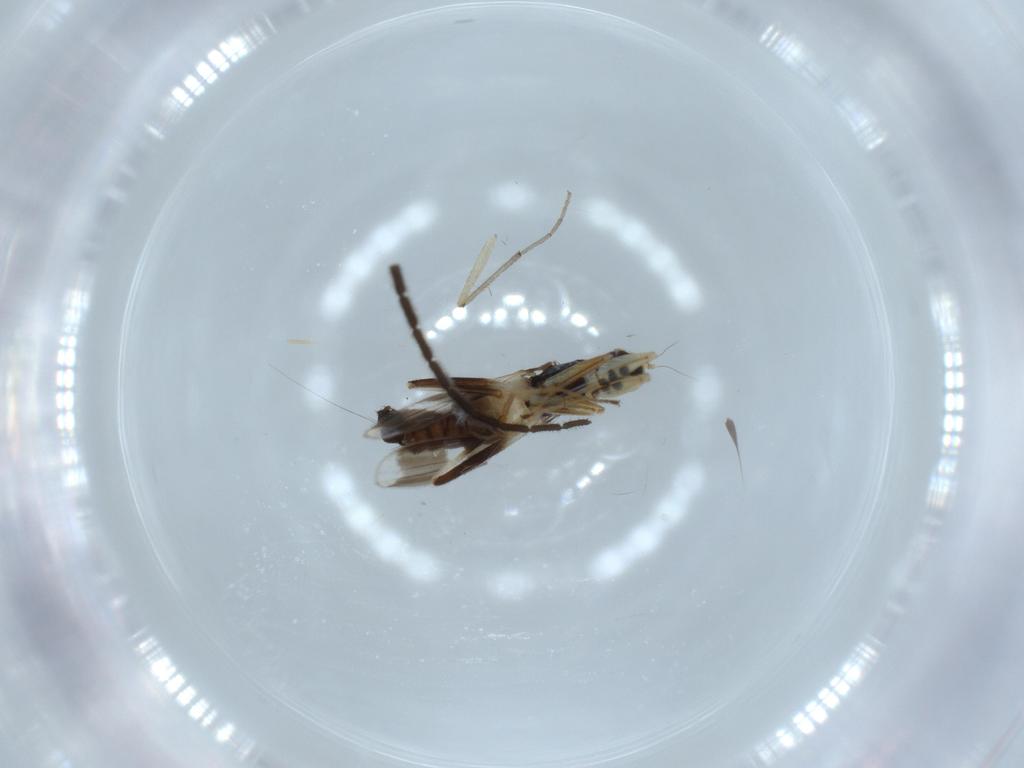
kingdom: Animalia
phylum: Arthropoda
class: Insecta
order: Diptera
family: Hybotidae
